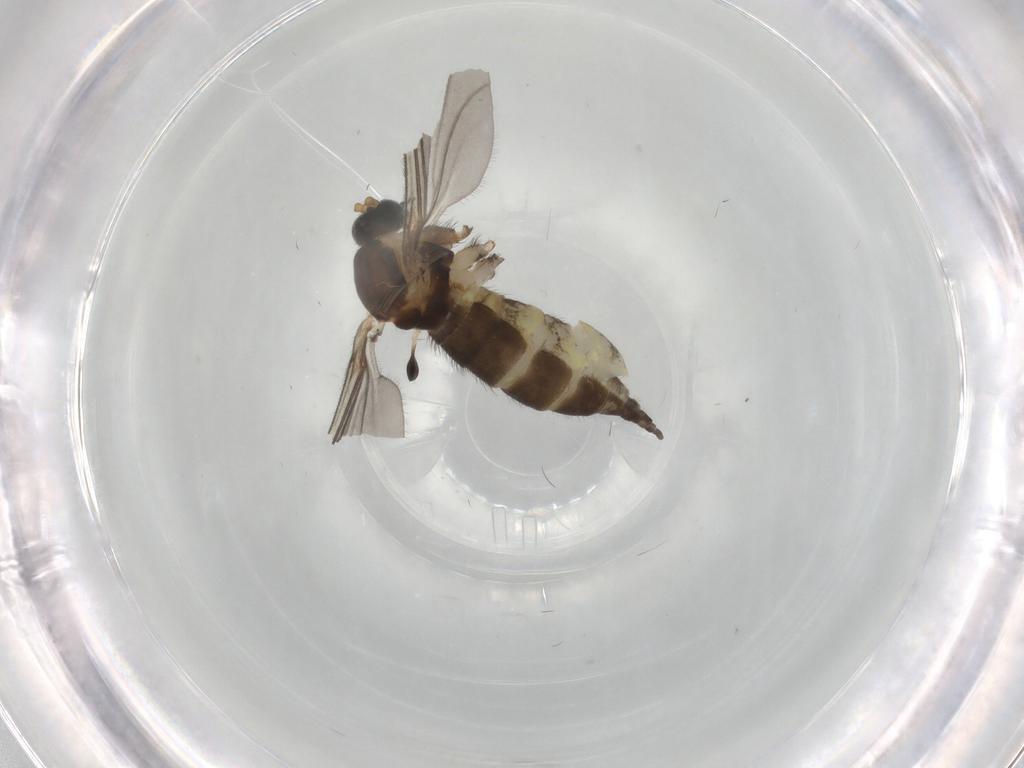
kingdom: Animalia
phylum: Arthropoda
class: Insecta
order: Diptera
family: Sciaridae
